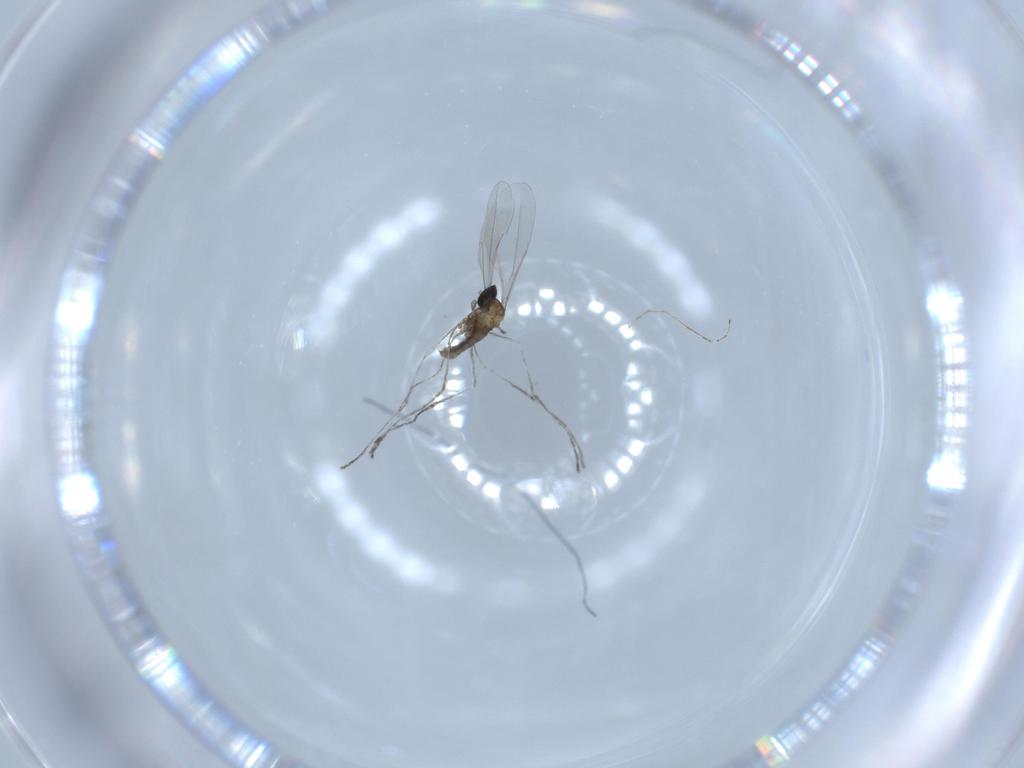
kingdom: Animalia
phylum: Arthropoda
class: Insecta
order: Diptera
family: Cecidomyiidae
